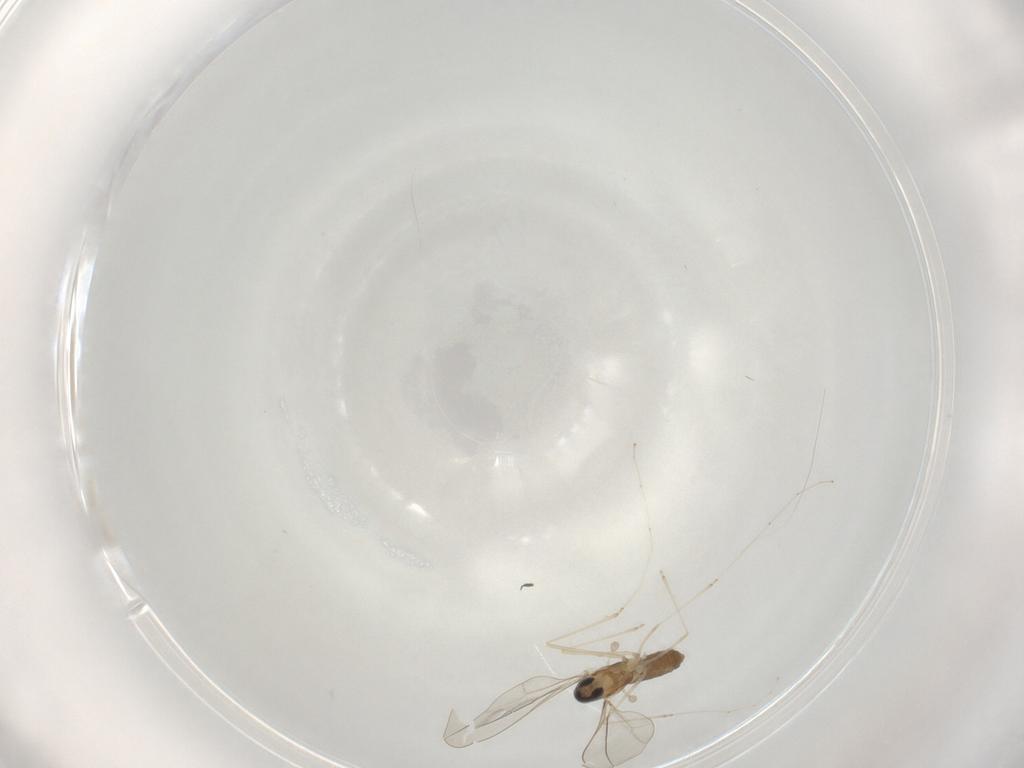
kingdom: Animalia
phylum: Arthropoda
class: Insecta
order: Diptera
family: Cecidomyiidae
